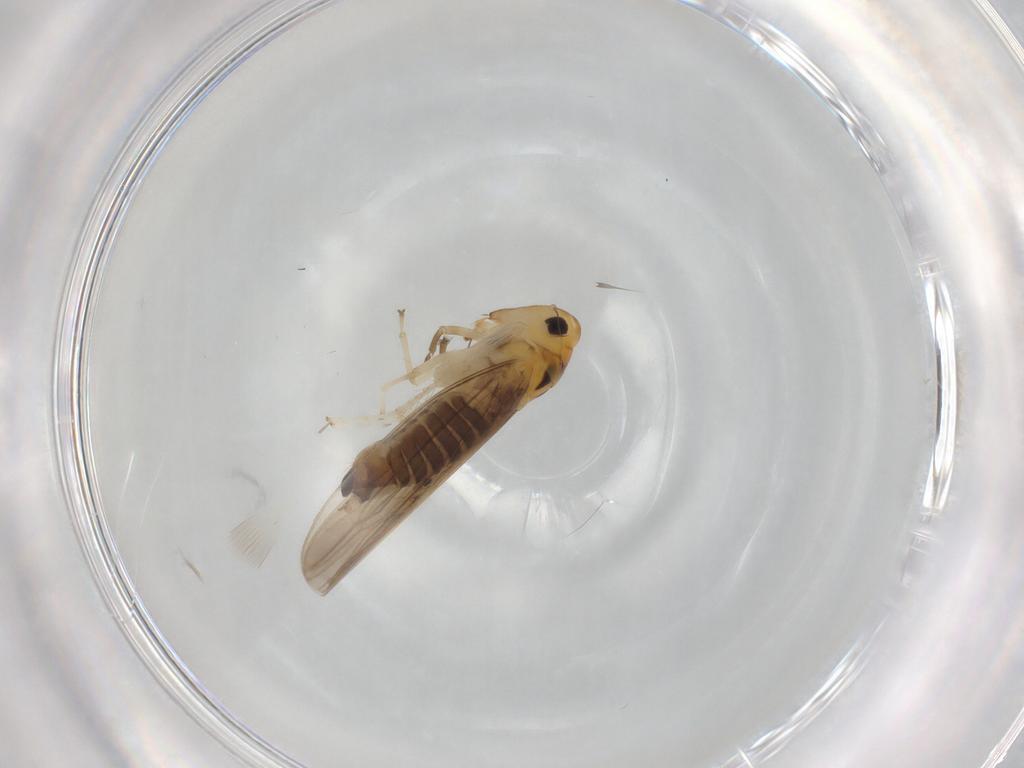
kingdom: Animalia
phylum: Arthropoda
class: Insecta
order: Hemiptera
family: Cicadellidae
